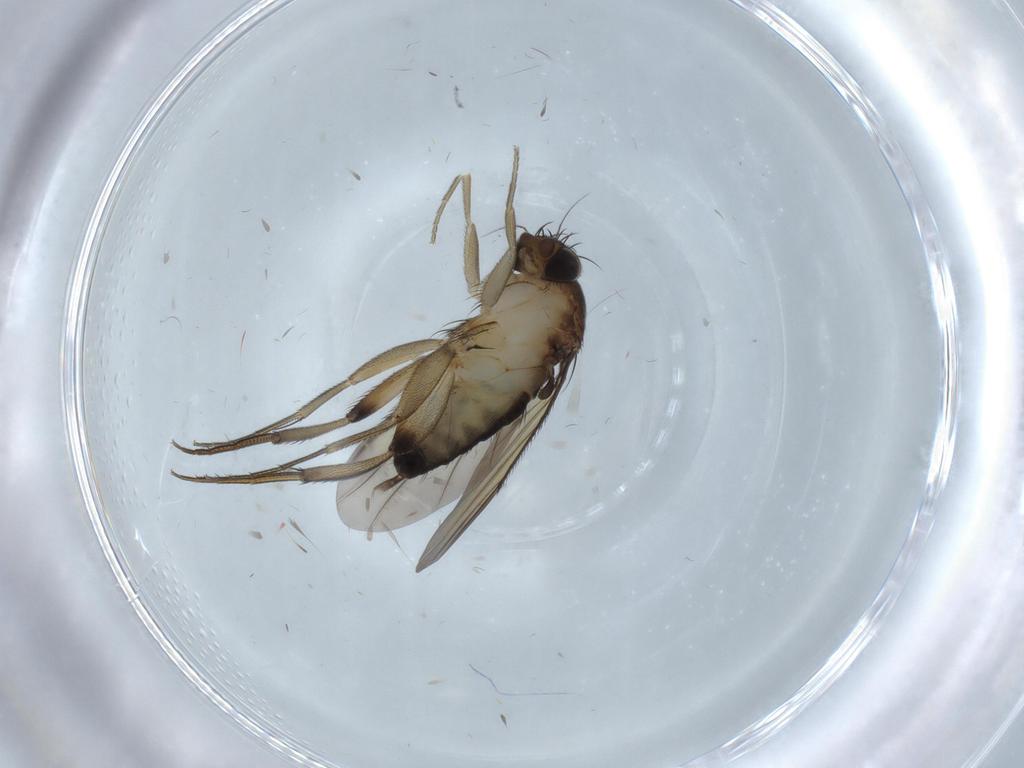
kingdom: Animalia
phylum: Arthropoda
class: Insecta
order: Diptera
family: Phoridae
